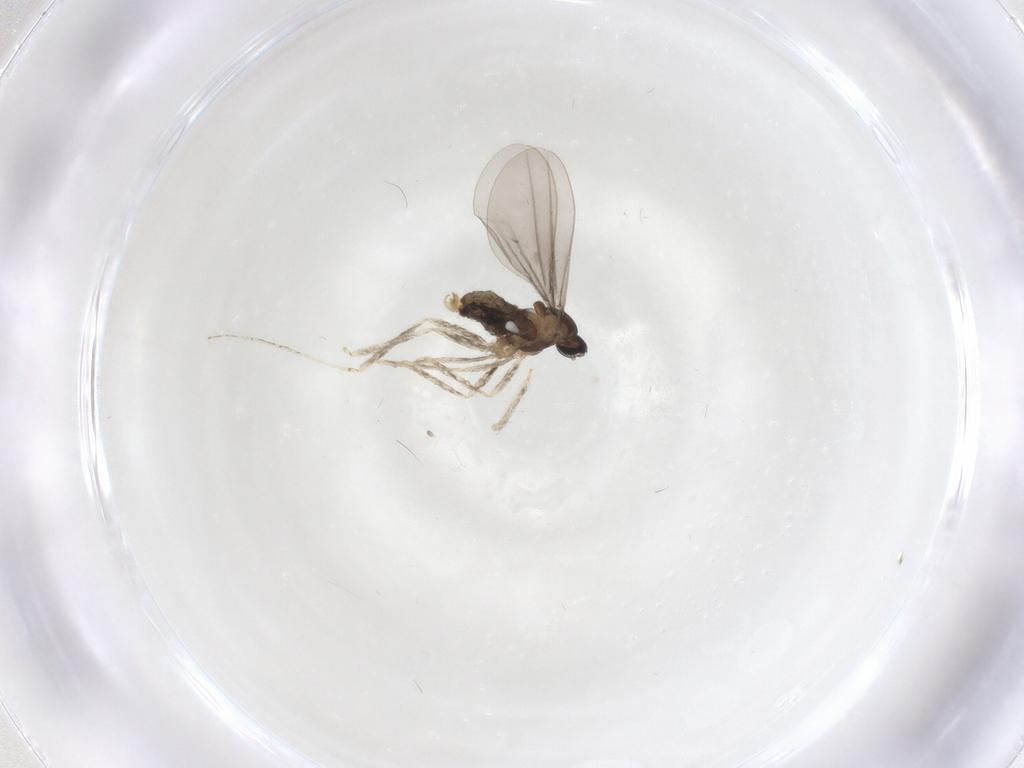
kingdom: Animalia
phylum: Arthropoda
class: Insecta
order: Diptera
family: Cecidomyiidae
